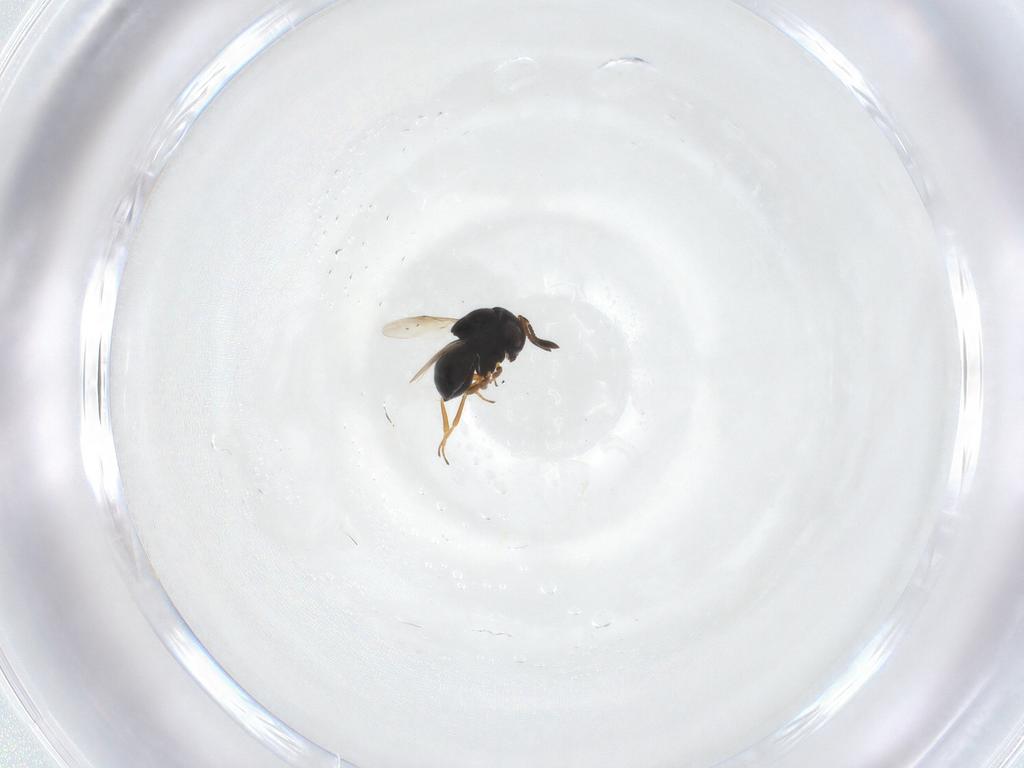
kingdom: Animalia
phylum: Arthropoda
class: Insecta
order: Hymenoptera
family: Scelionidae
